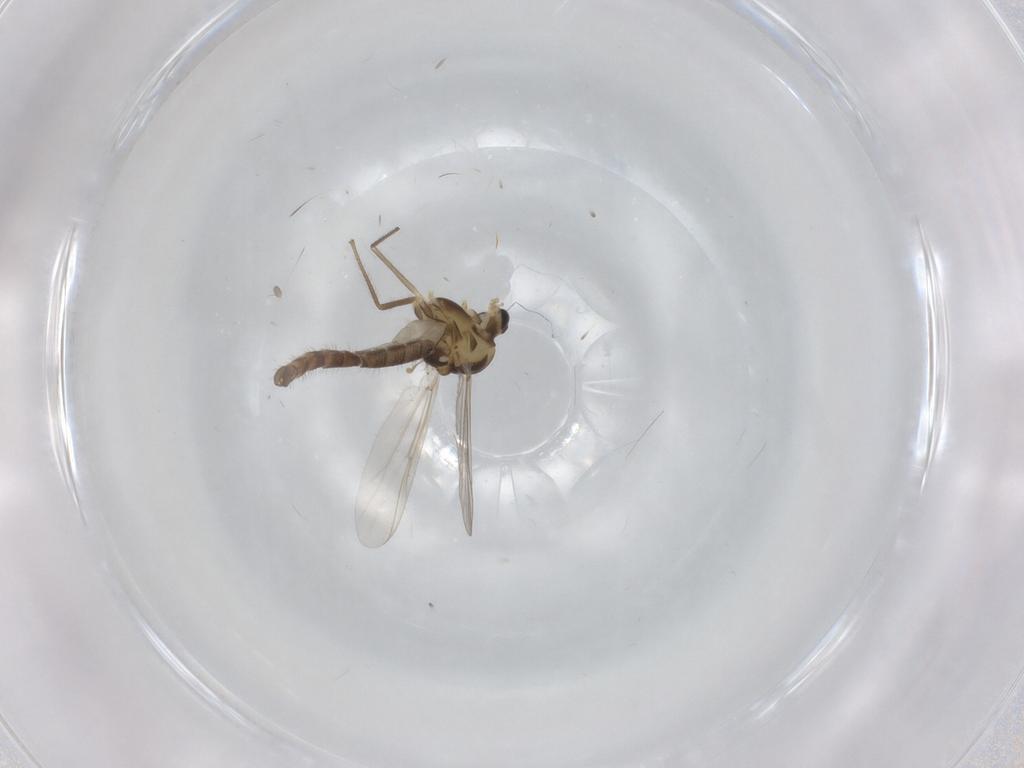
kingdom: Animalia
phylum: Arthropoda
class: Insecta
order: Diptera
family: Chironomidae
